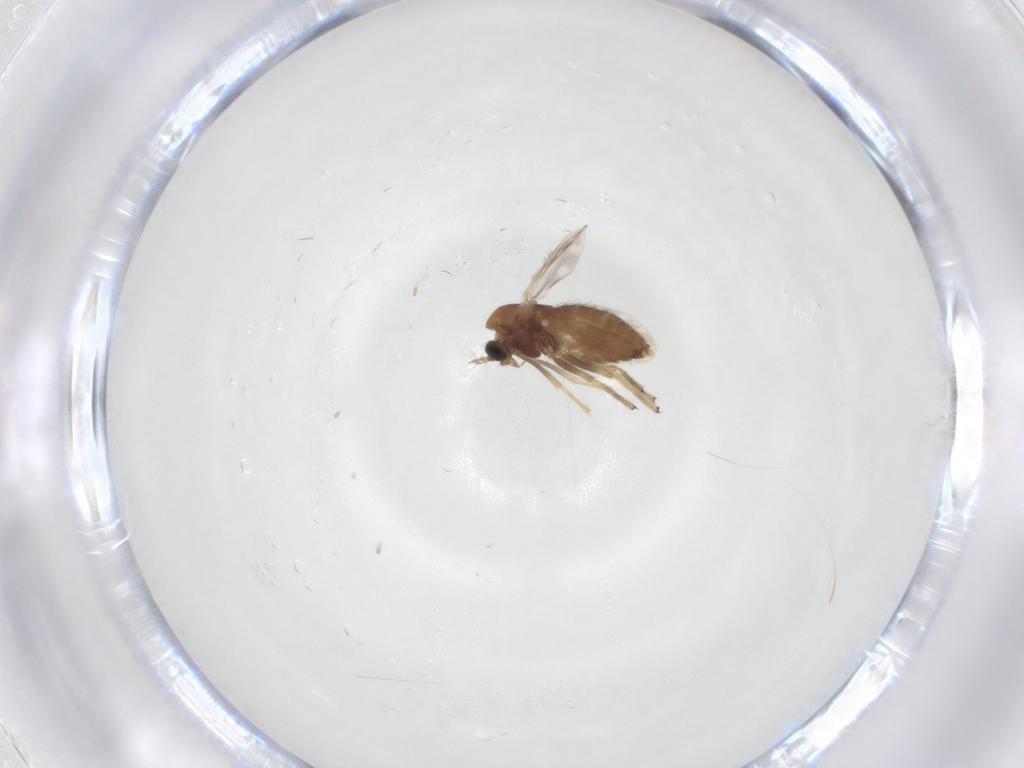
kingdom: Animalia
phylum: Arthropoda
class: Insecta
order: Diptera
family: Chironomidae
